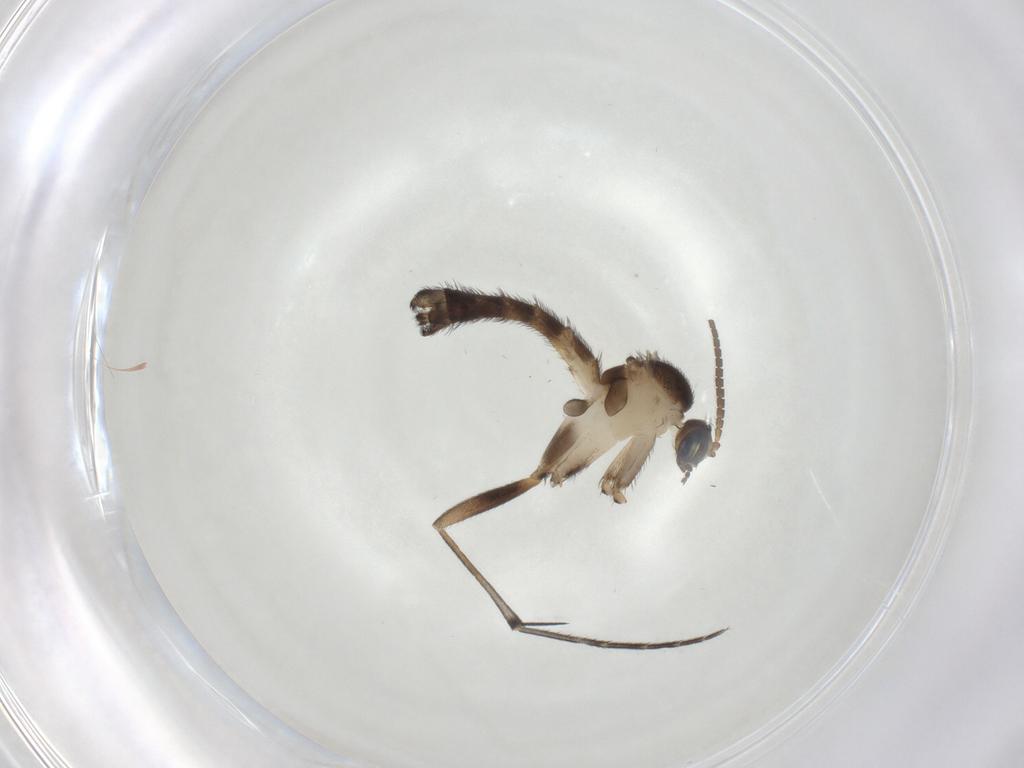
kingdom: Animalia
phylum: Arthropoda
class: Insecta
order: Diptera
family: Keroplatidae
